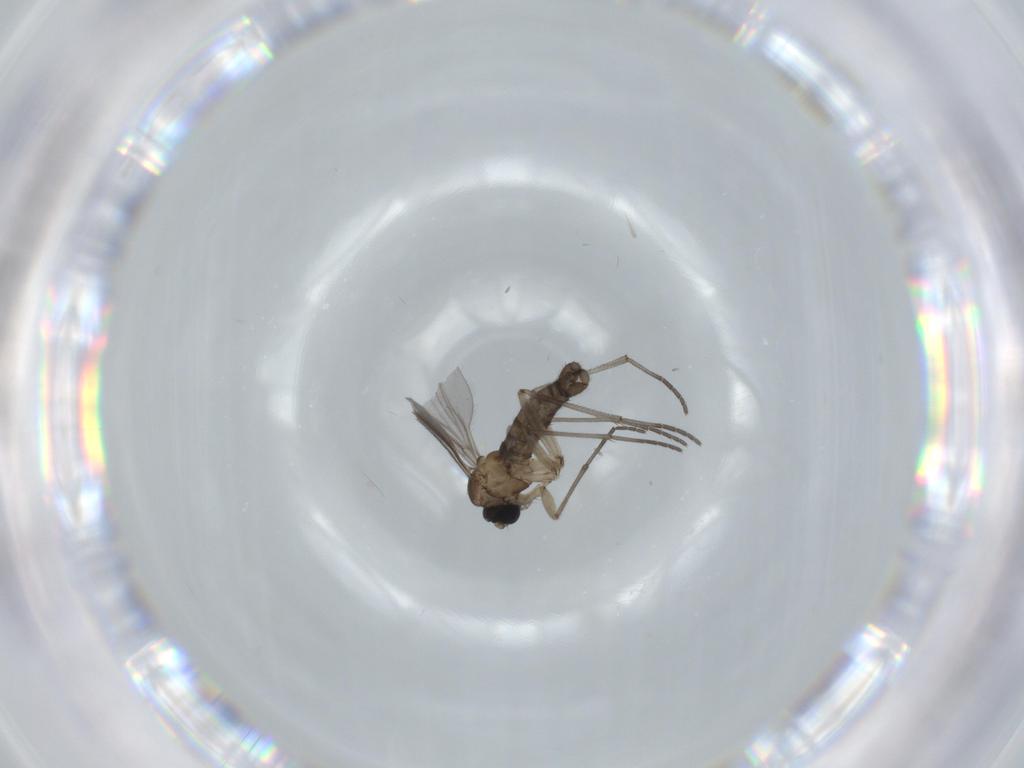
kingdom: Animalia
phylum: Arthropoda
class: Insecta
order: Diptera
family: Sciaridae
